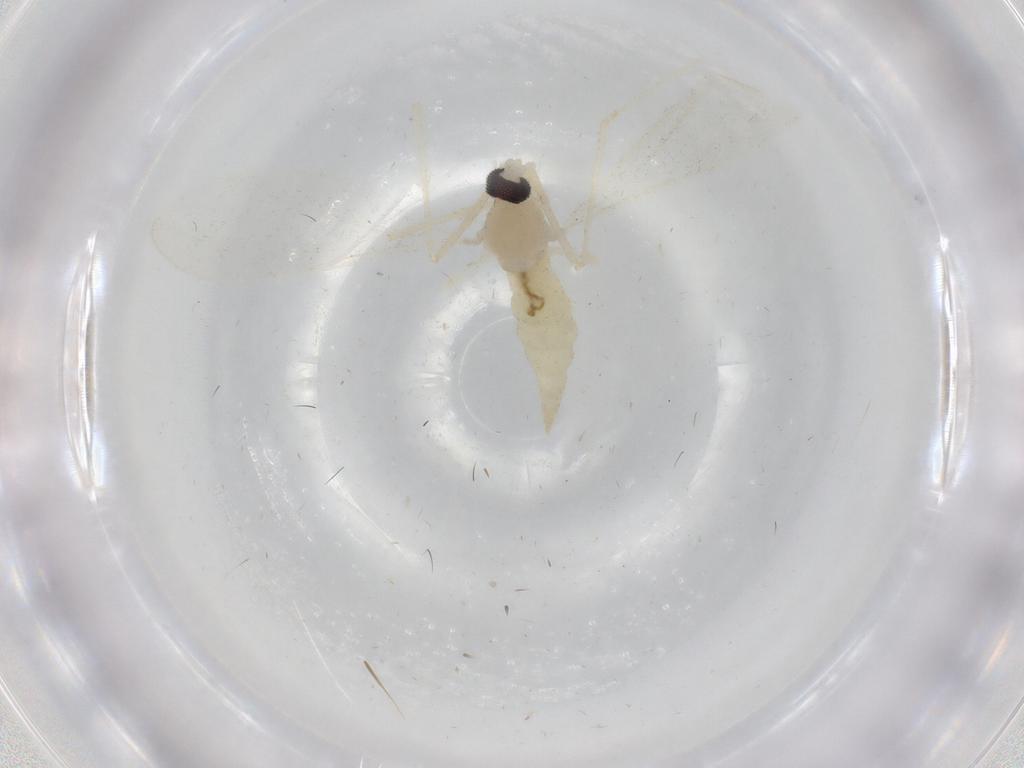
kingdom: Animalia
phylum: Arthropoda
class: Insecta
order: Diptera
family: Cecidomyiidae
